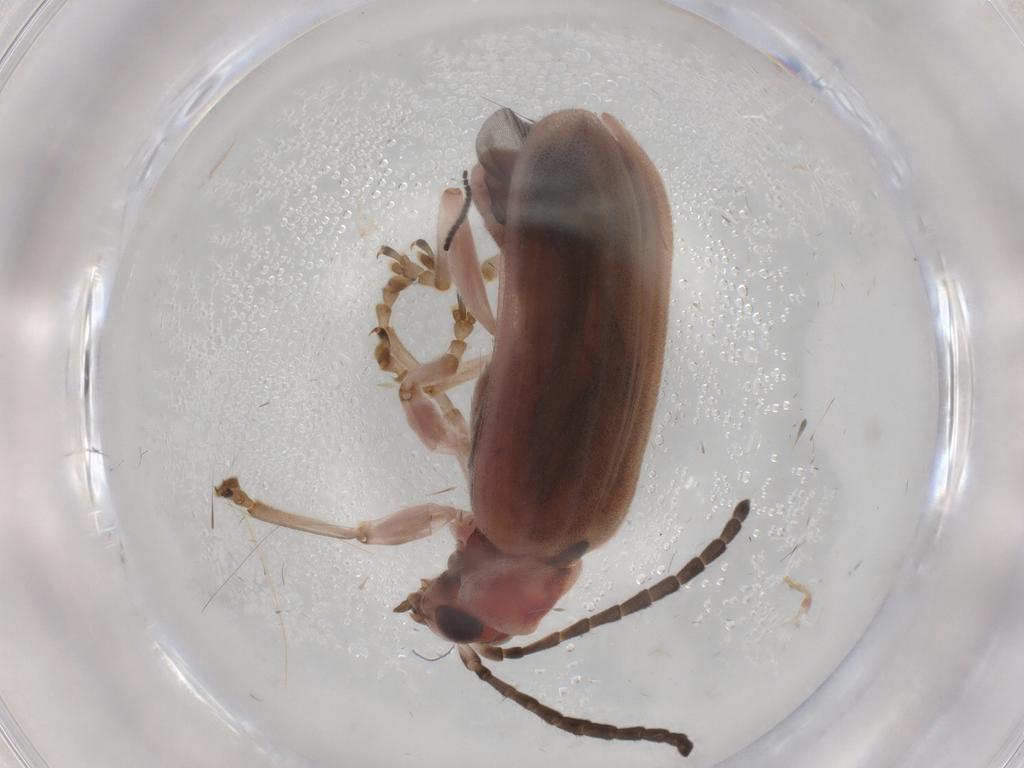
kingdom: Animalia
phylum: Arthropoda
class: Insecta
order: Coleoptera
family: Chrysomelidae
